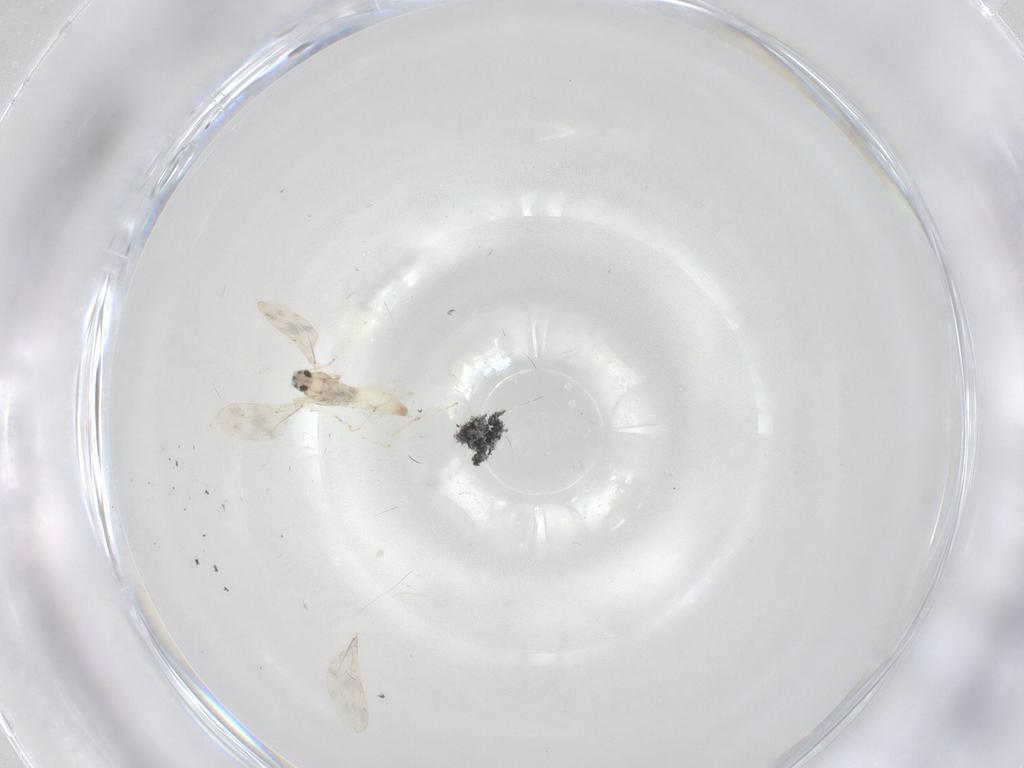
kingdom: Animalia
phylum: Arthropoda
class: Insecta
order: Diptera
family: Cecidomyiidae
